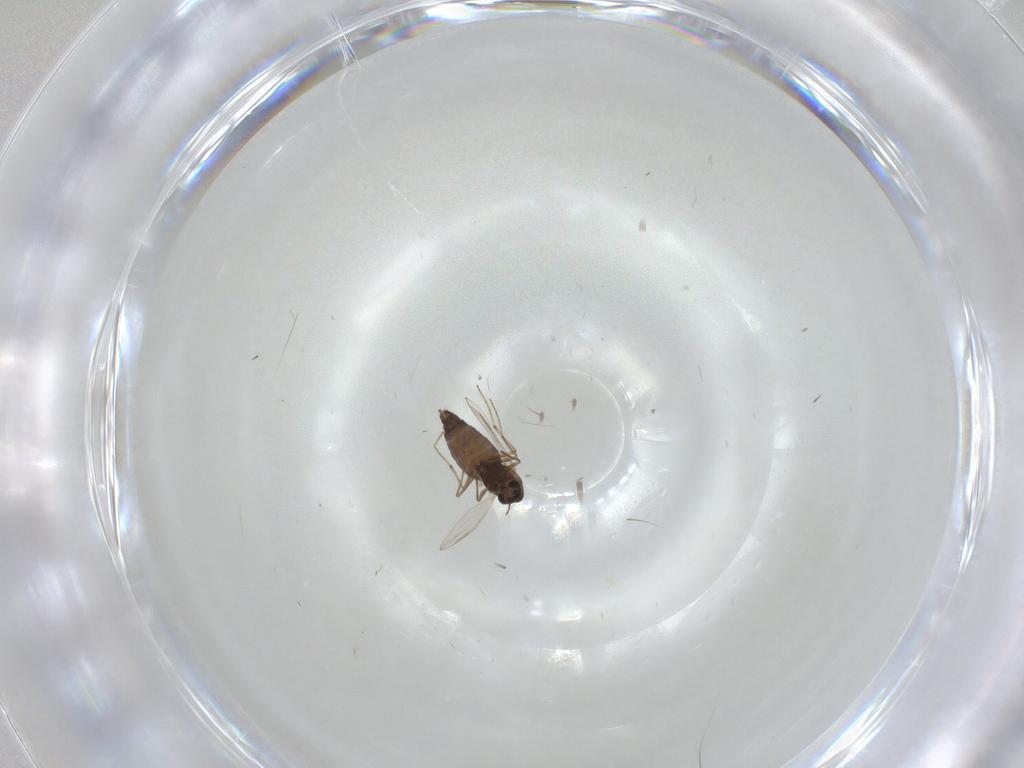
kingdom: Animalia
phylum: Arthropoda
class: Insecta
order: Diptera
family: Chironomidae
